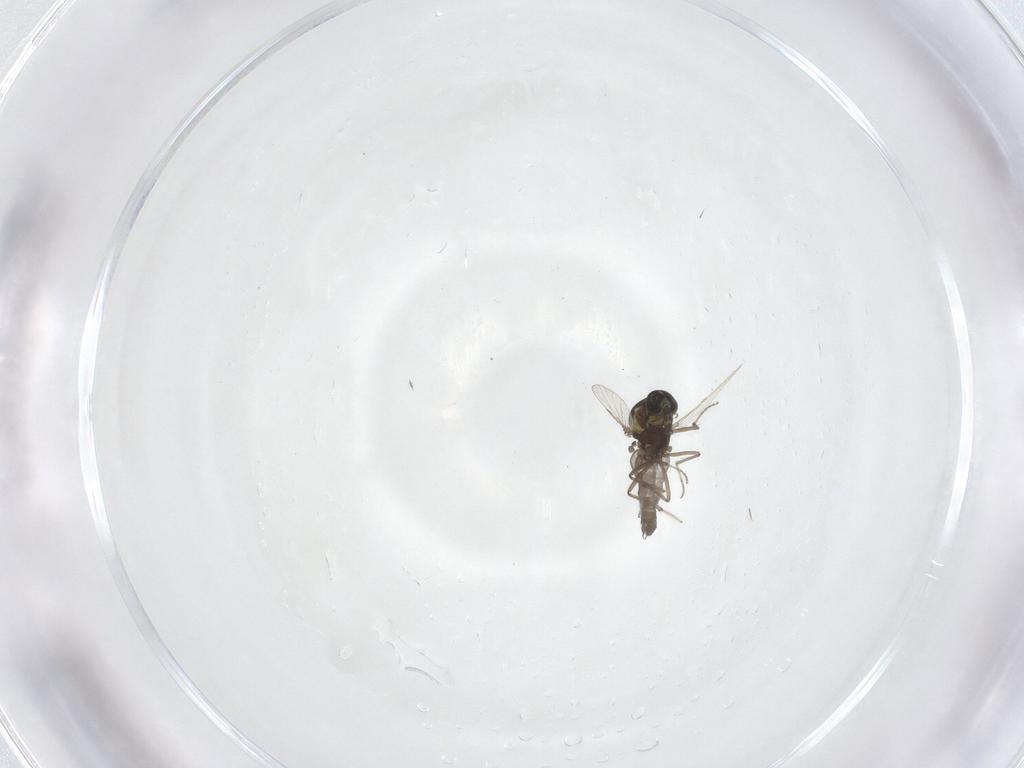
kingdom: Animalia
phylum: Arthropoda
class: Insecta
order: Diptera
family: Ceratopogonidae
